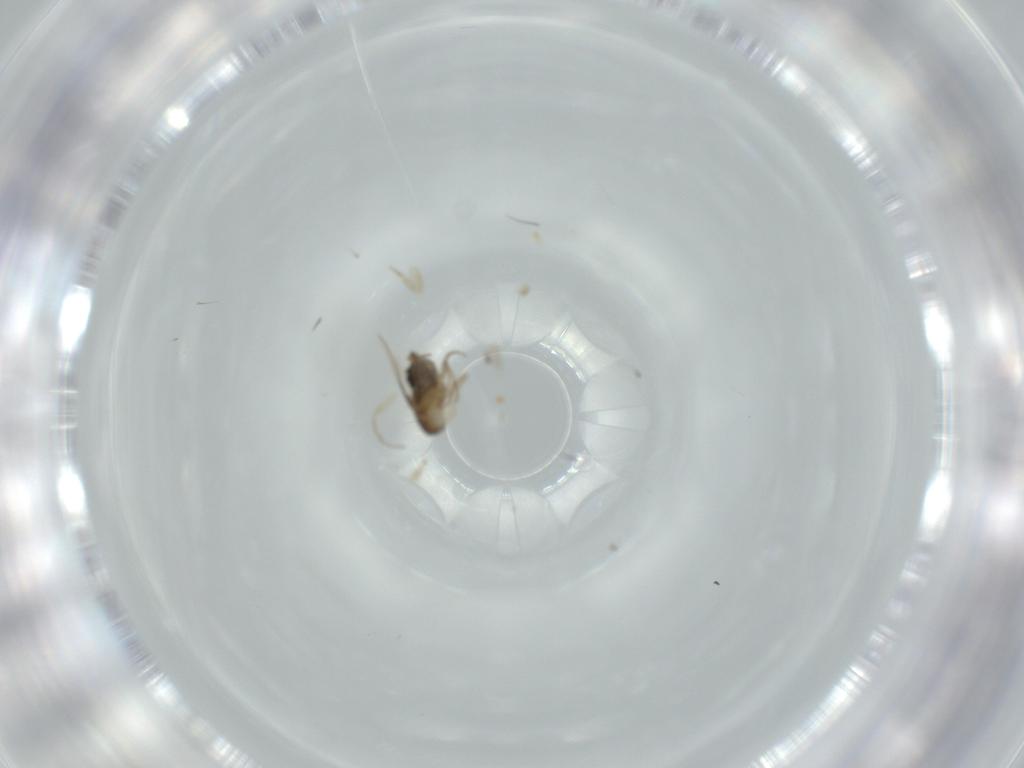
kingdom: Animalia
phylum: Arthropoda
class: Insecta
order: Diptera
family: Phoridae
